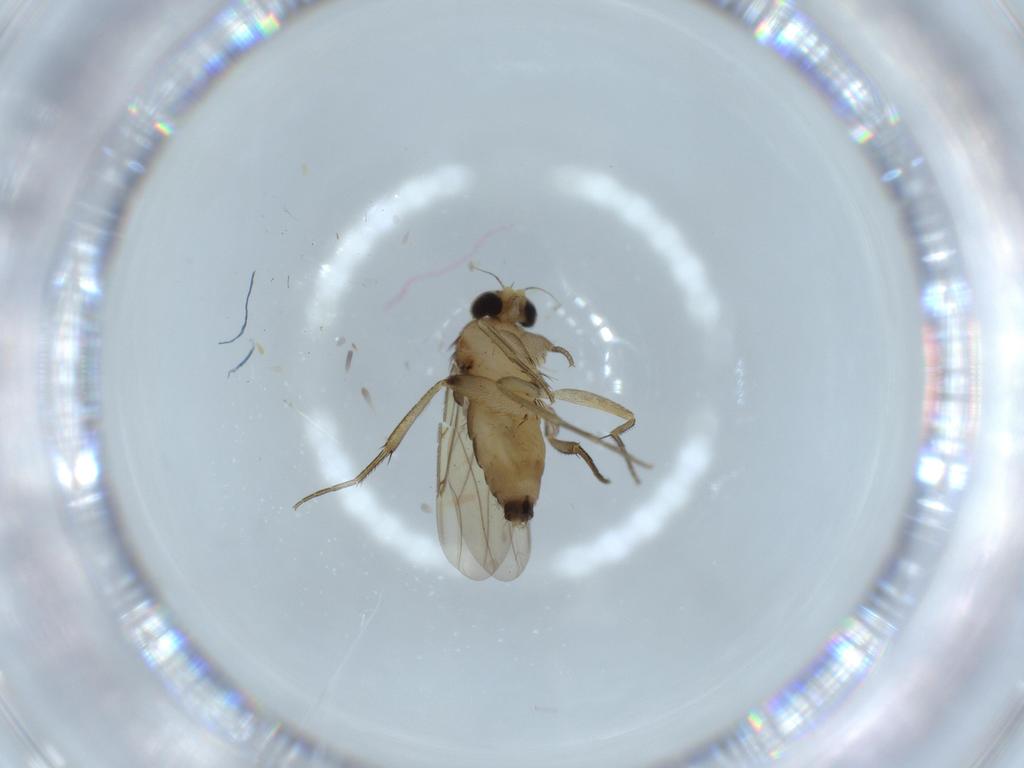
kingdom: Animalia
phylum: Arthropoda
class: Insecta
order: Diptera
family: Phoridae
